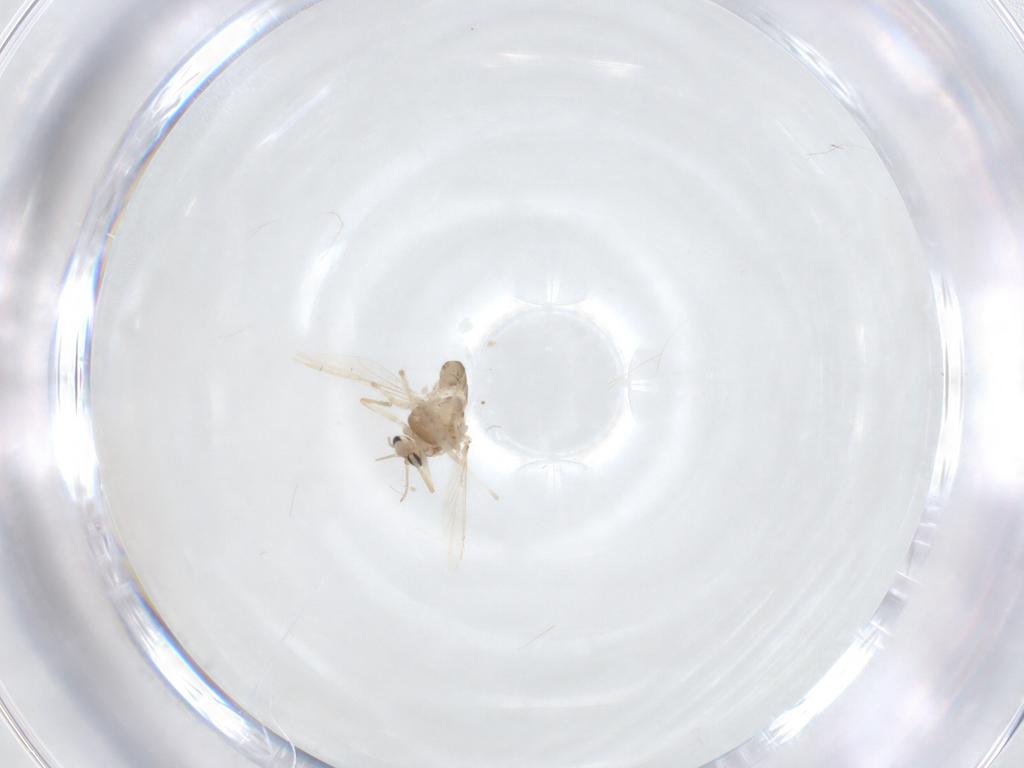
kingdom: Animalia
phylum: Arthropoda
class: Insecta
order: Diptera
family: Chironomidae
